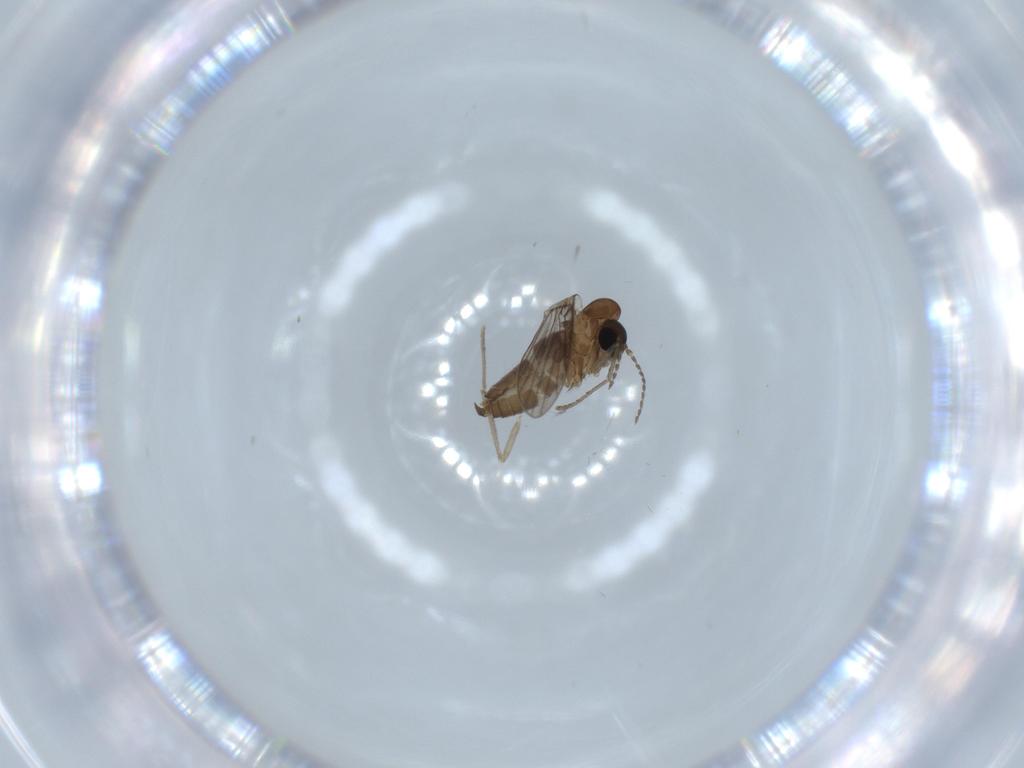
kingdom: Animalia
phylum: Arthropoda
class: Insecta
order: Diptera
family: Psychodidae
